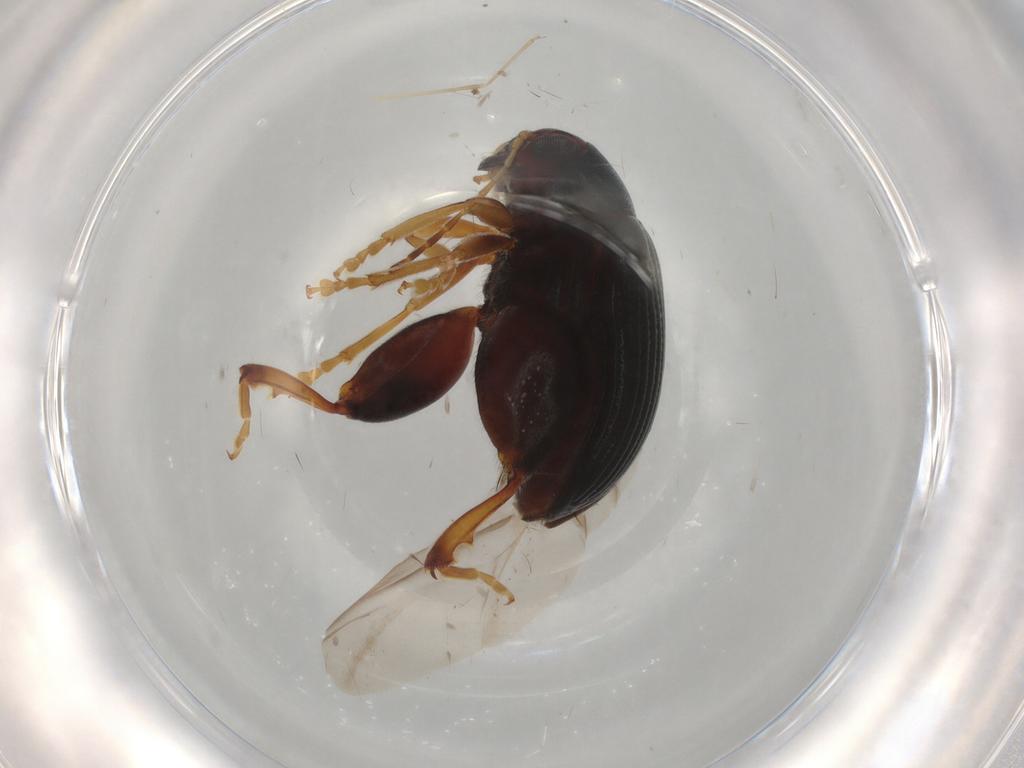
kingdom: Animalia
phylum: Arthropoda
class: Insecta
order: Coleoptera
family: Chrysomelidae
